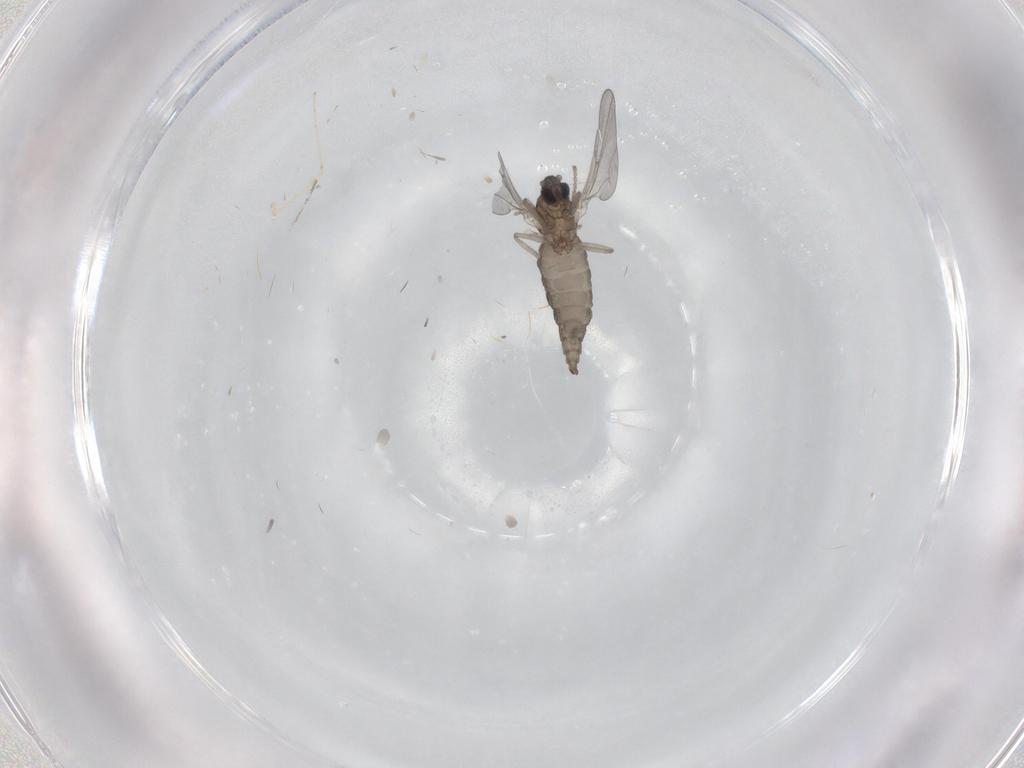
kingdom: Animalia
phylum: Arthropoda
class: Insecta
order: Diptera
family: Cecidomyiidae
